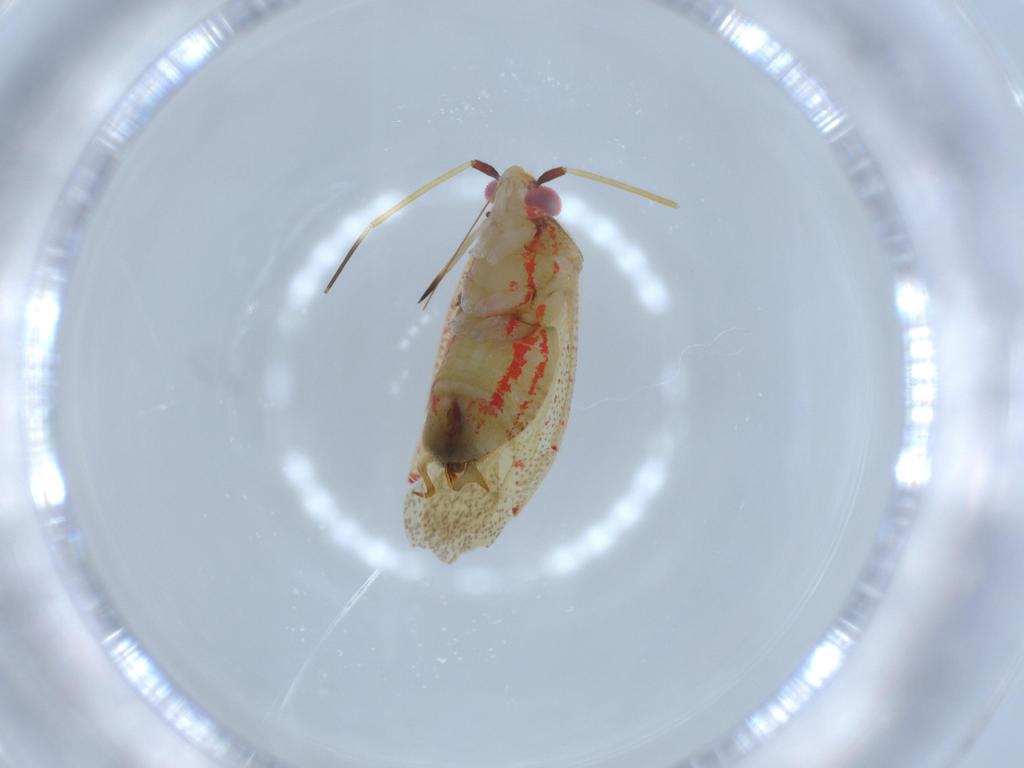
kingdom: Animalia
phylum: Arthropoda
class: Insecta
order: Hemiptera
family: Miridae
